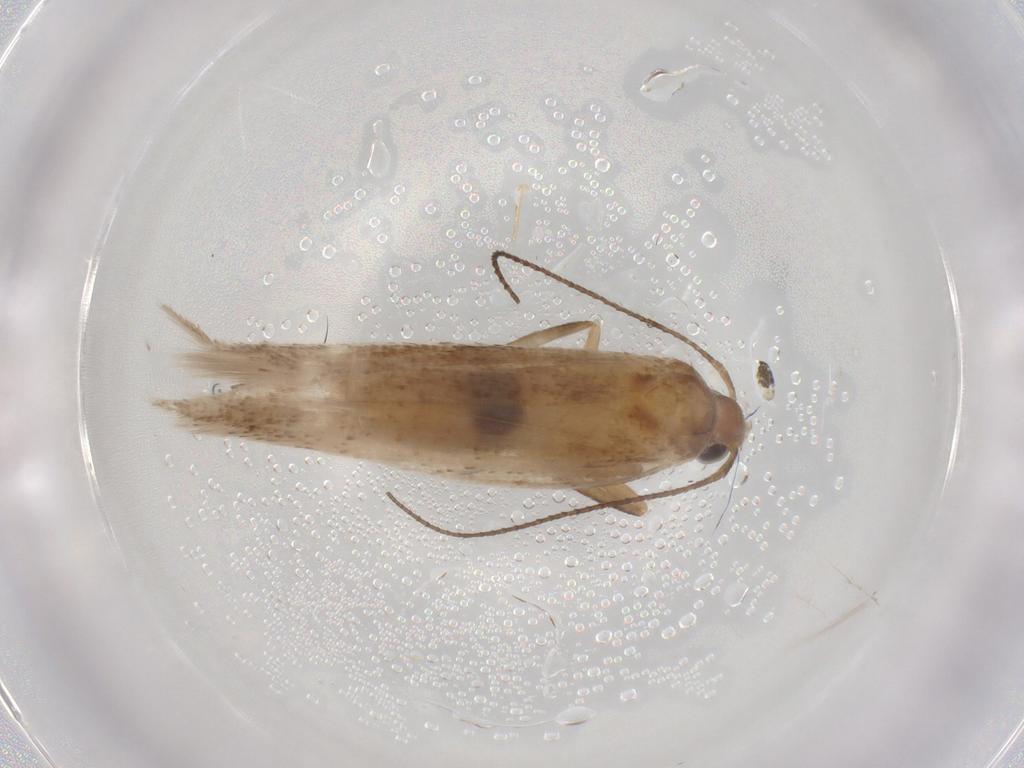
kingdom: Animalia
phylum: Arthropoda
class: Insecta
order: Lepidoptera
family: Gelechiidae
